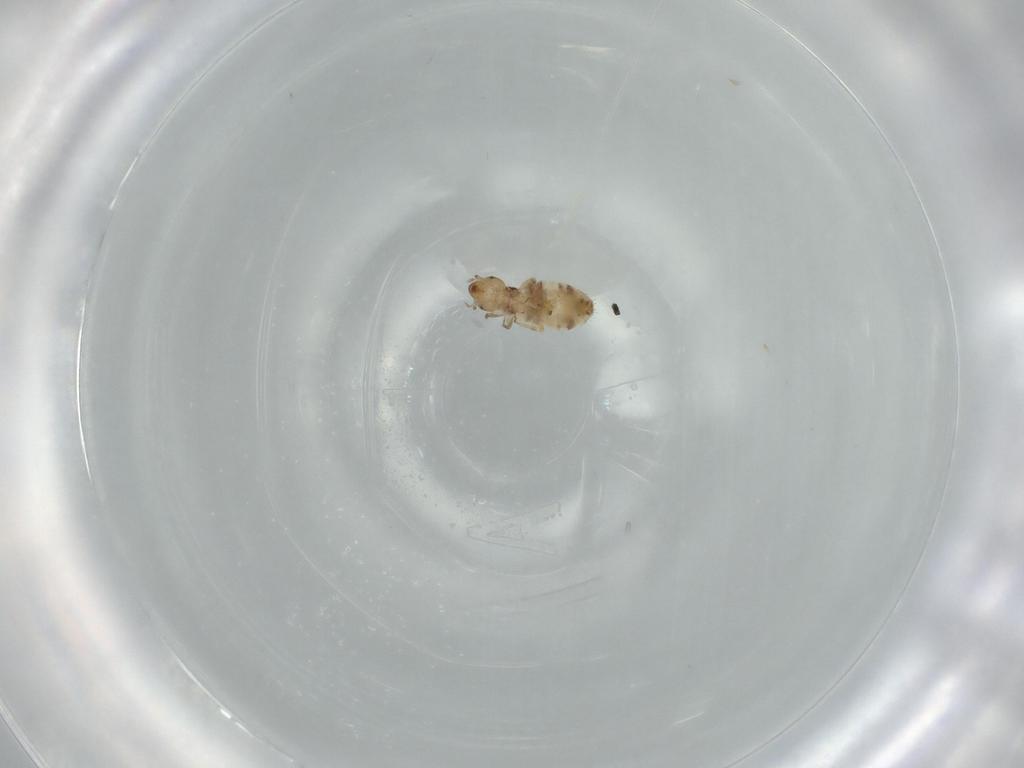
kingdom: Animalia
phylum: Arthropoda
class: Insecta
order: Psocodea
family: Liposcelididae
